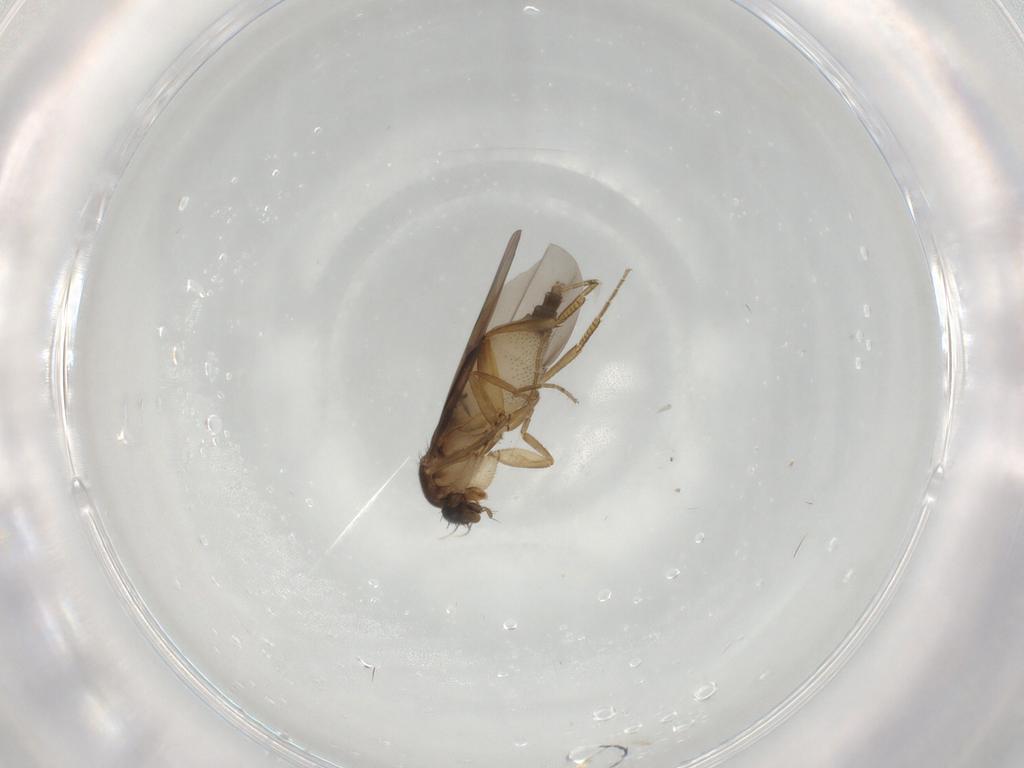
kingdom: Animalia
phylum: Arthropoda
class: Insecta
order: Diptera
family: Phoridae
